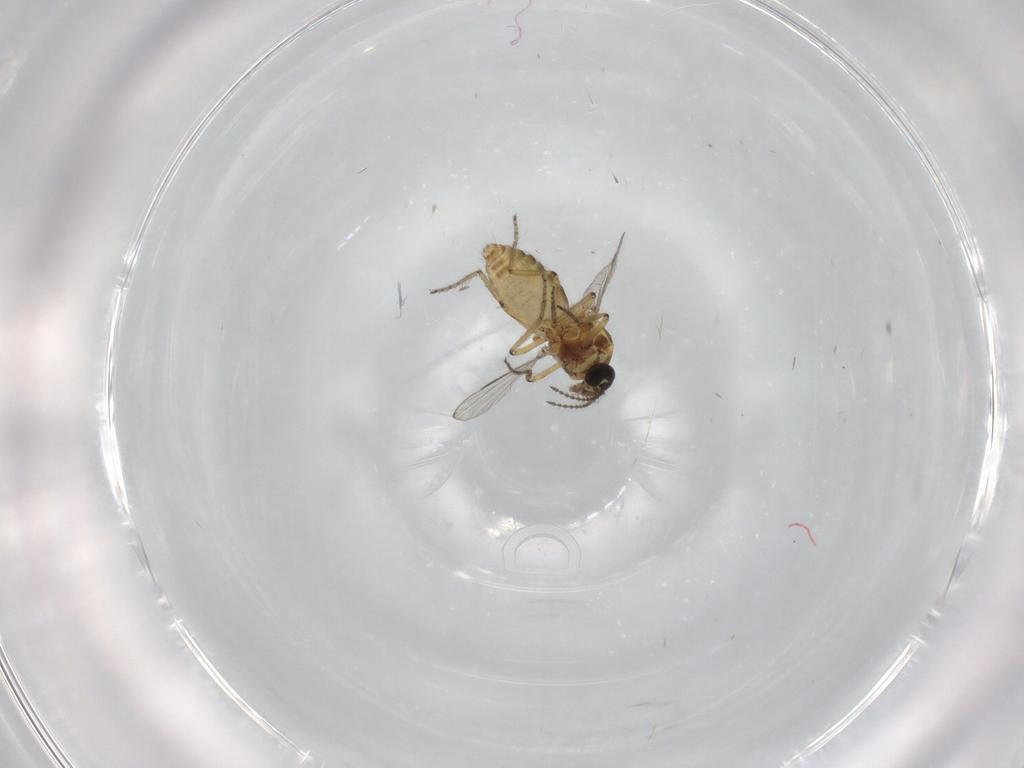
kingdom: Animalia
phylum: Arthropoda
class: Insecta
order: Diptera
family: Ceratopogonidae
